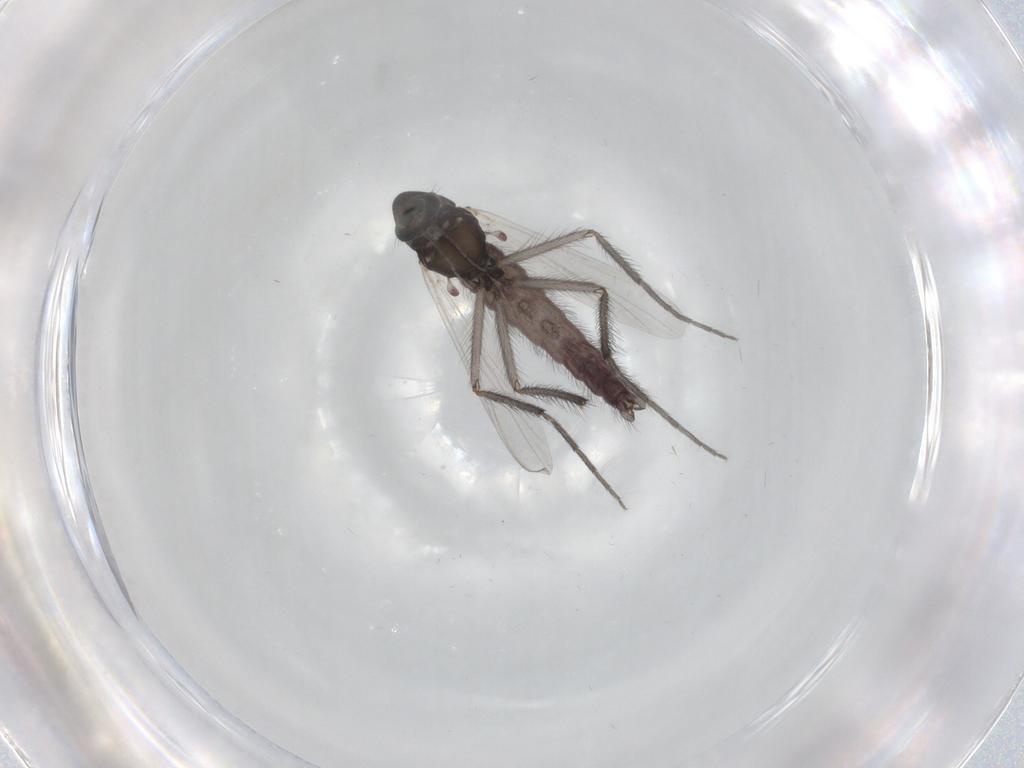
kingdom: Animalia
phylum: Arthropoda
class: Insecta
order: Diptera
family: Chironomidae
